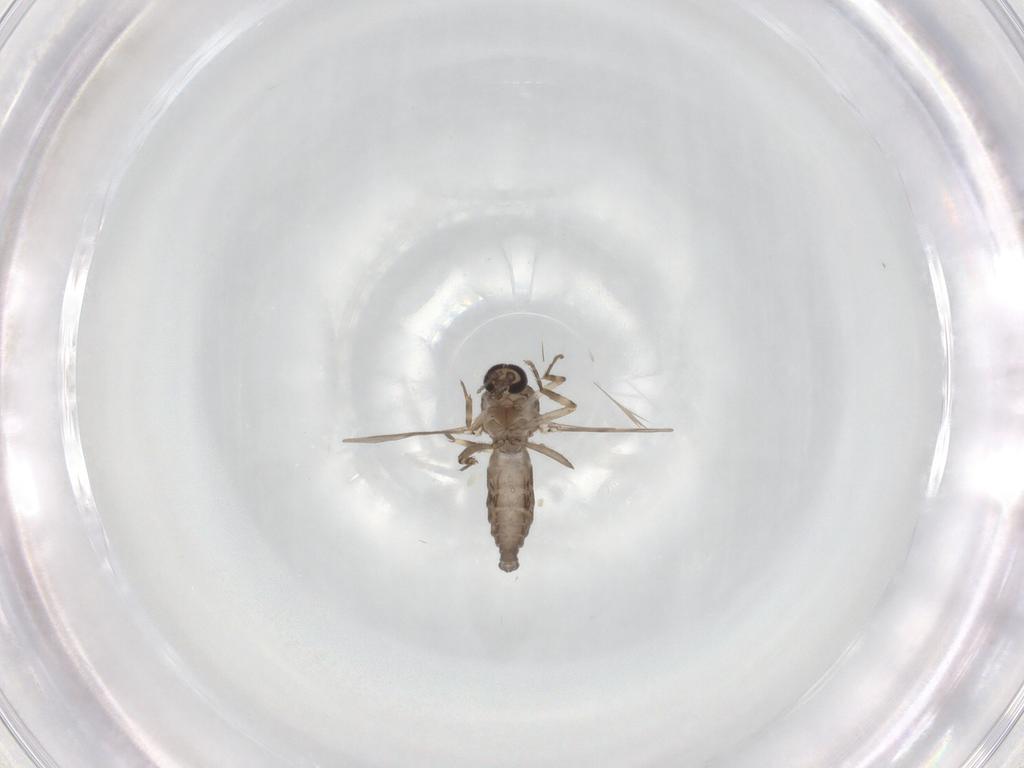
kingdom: Animalia
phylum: Arthropoda
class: Insecta
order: Diptera
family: Ceratopogonidae
